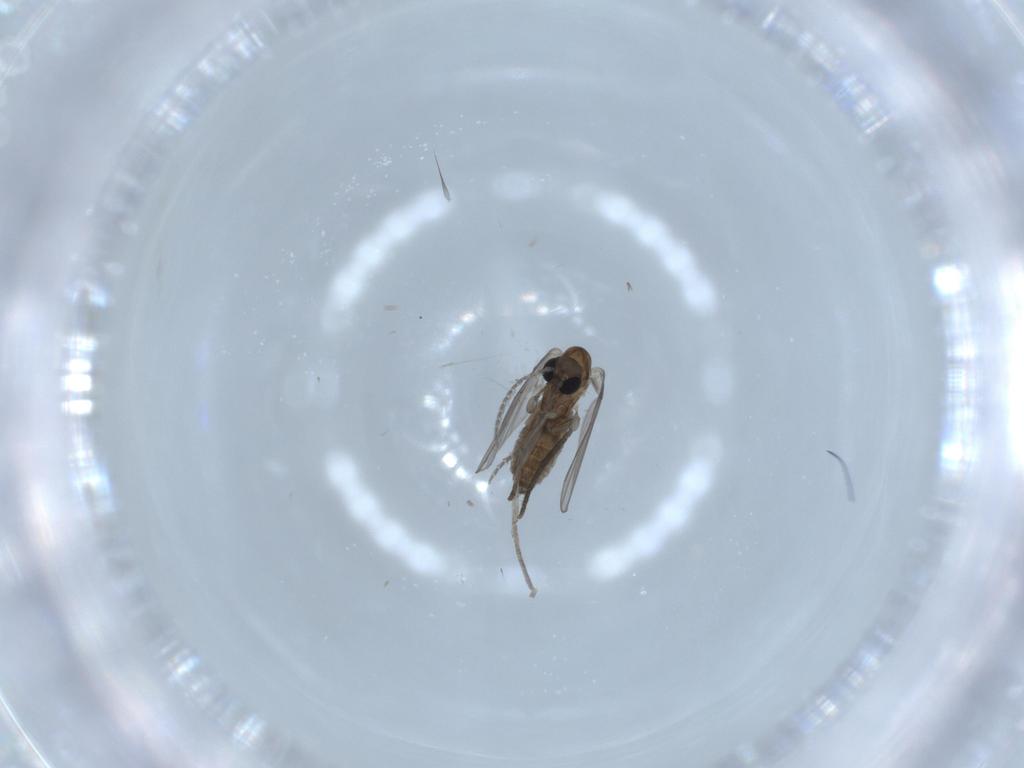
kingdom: Animalia
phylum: Arthropoda
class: Insecta
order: Diptera
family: Psychodidae
